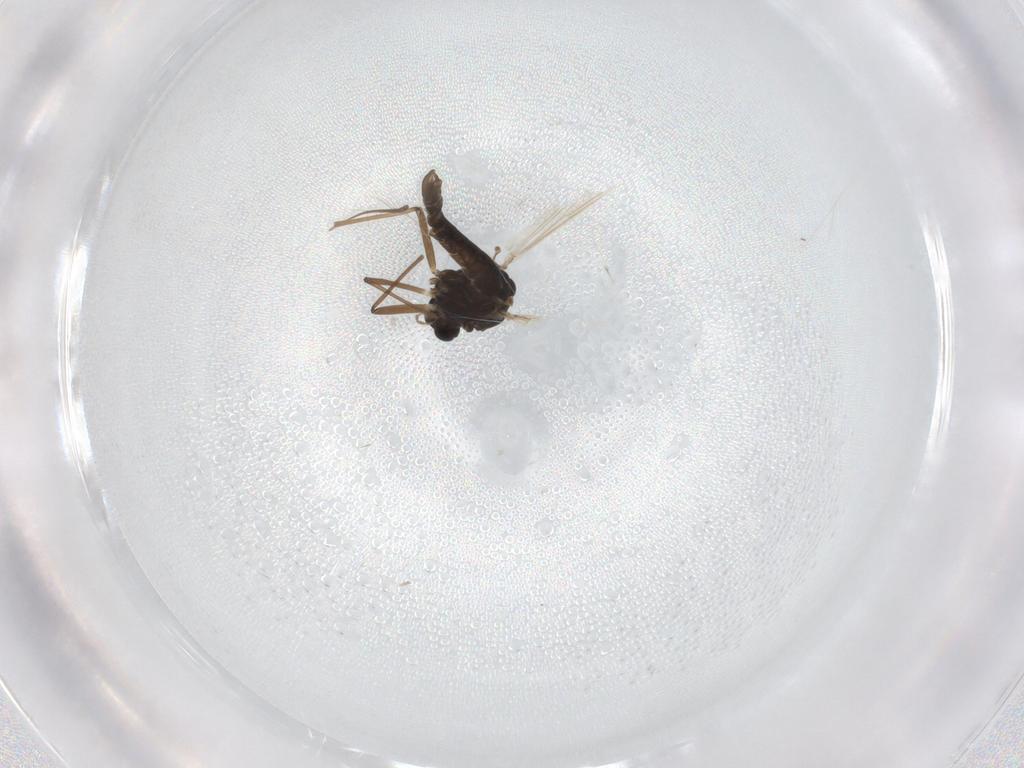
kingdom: Animalia
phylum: Arthropoda
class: Insecta
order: Diptera
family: Chironomidae
